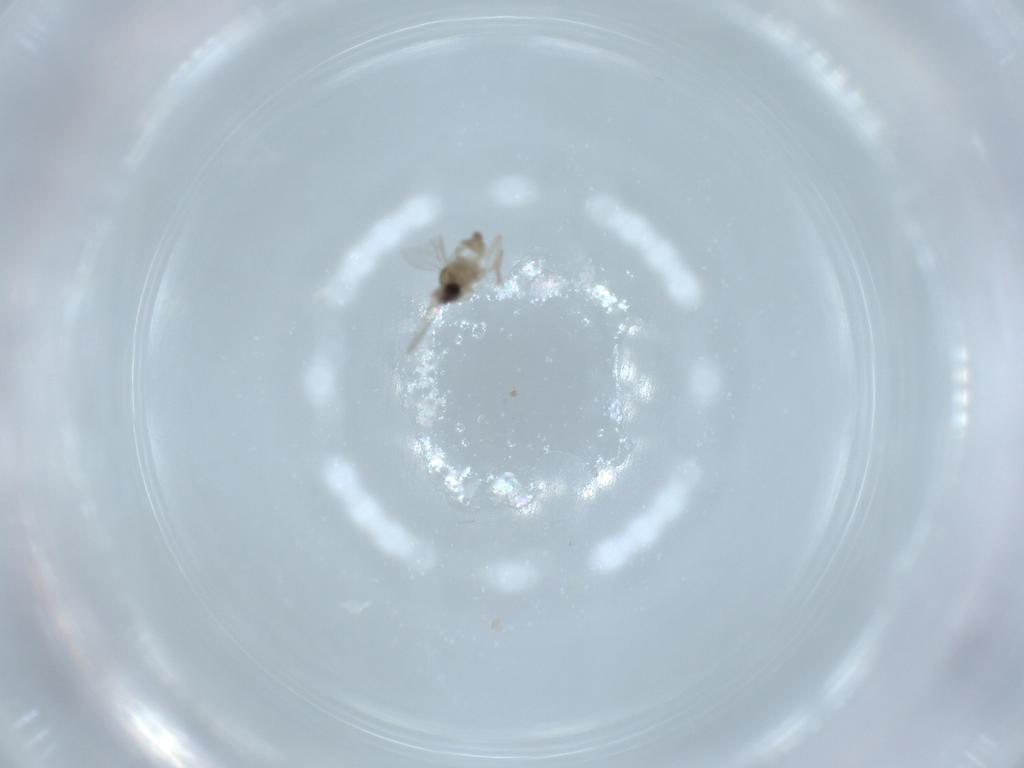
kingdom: Animalia
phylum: Arthropoda
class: Insecta
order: Diptera
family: Cecidomyiidae
